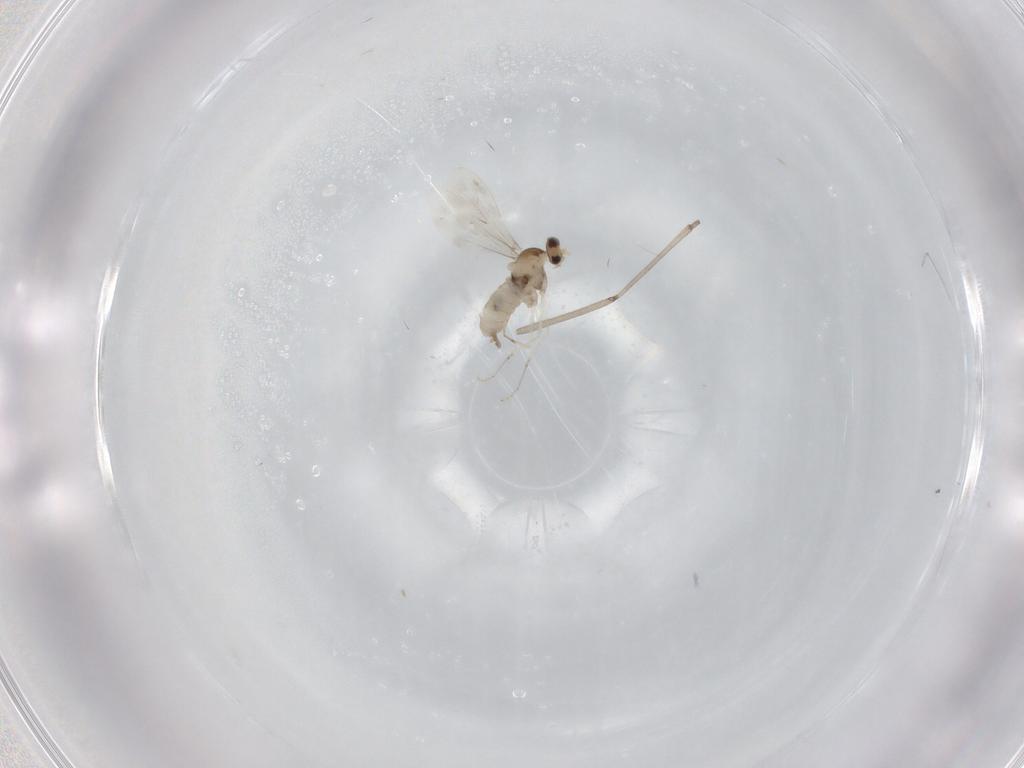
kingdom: Animalia
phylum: Arthropoda
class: Insecta
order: Diptera
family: Cecidomyiidae
